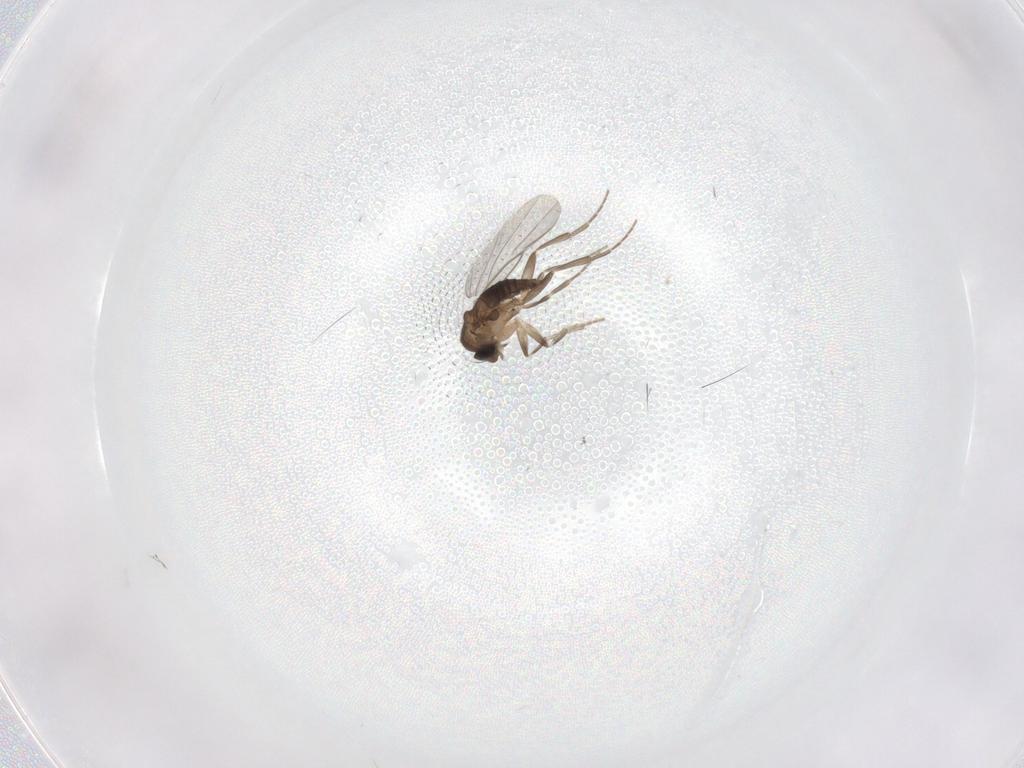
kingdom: Animalia
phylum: Arthropoda
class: Insecta
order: Diptera
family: Phoridae
